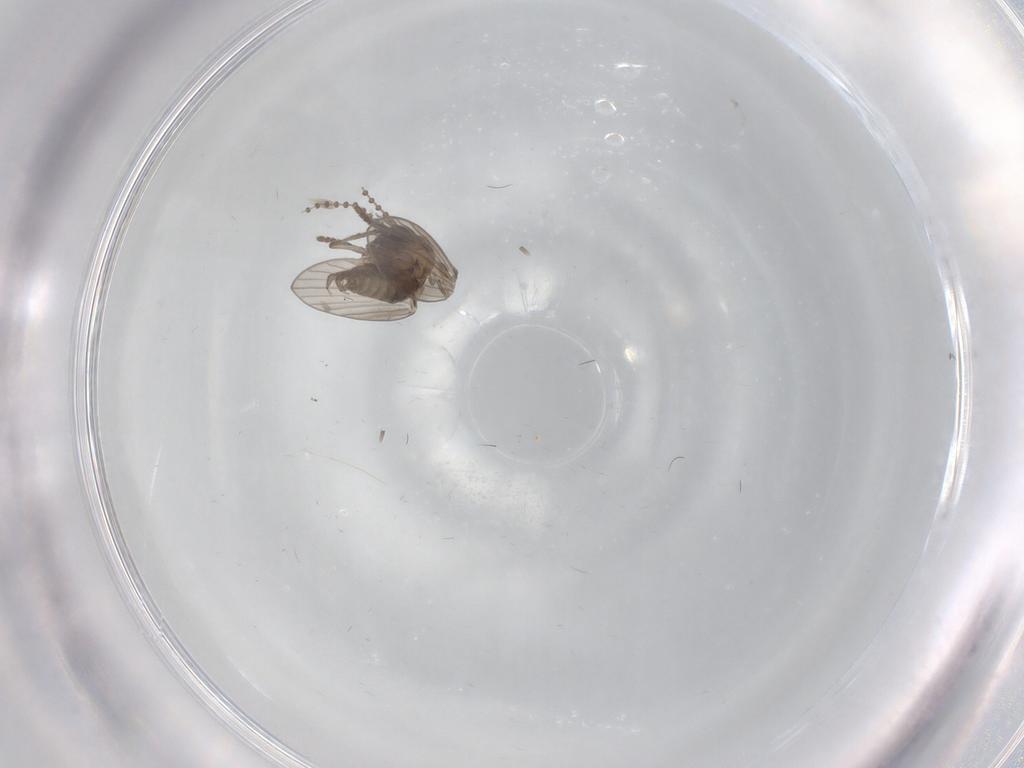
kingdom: Animalia
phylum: Arthropoda
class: Insecta
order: Diptera
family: Psychodidae
